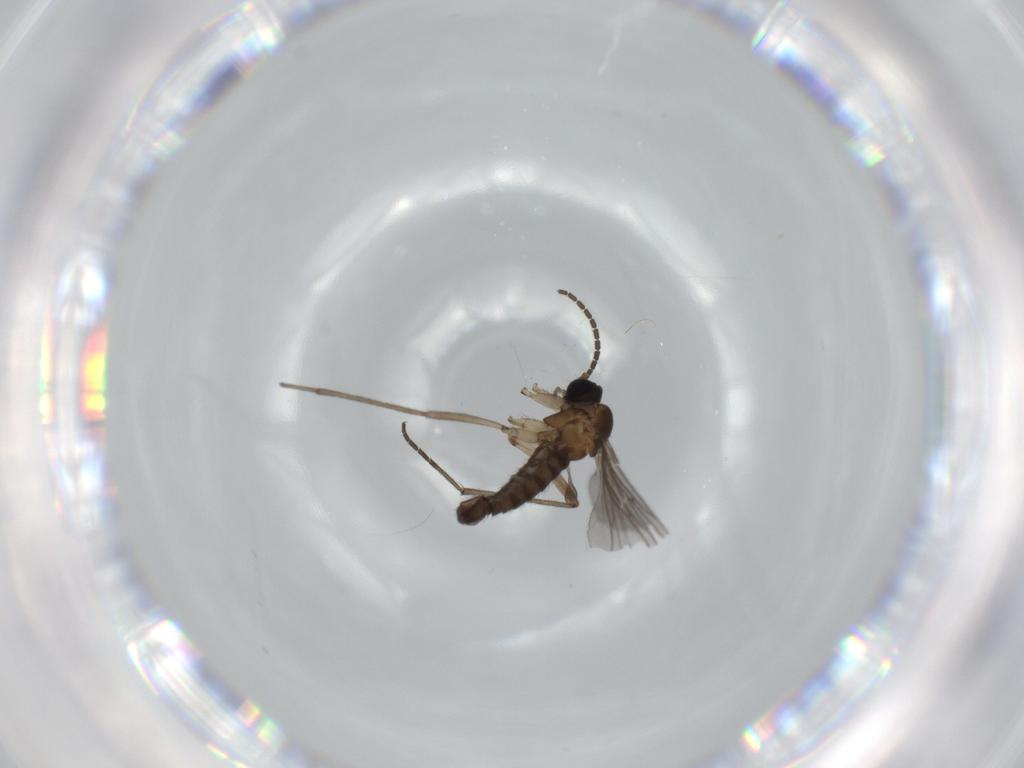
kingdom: Animalia
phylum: Arthropoda
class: Insecta
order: Diptera
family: Sciaridae
